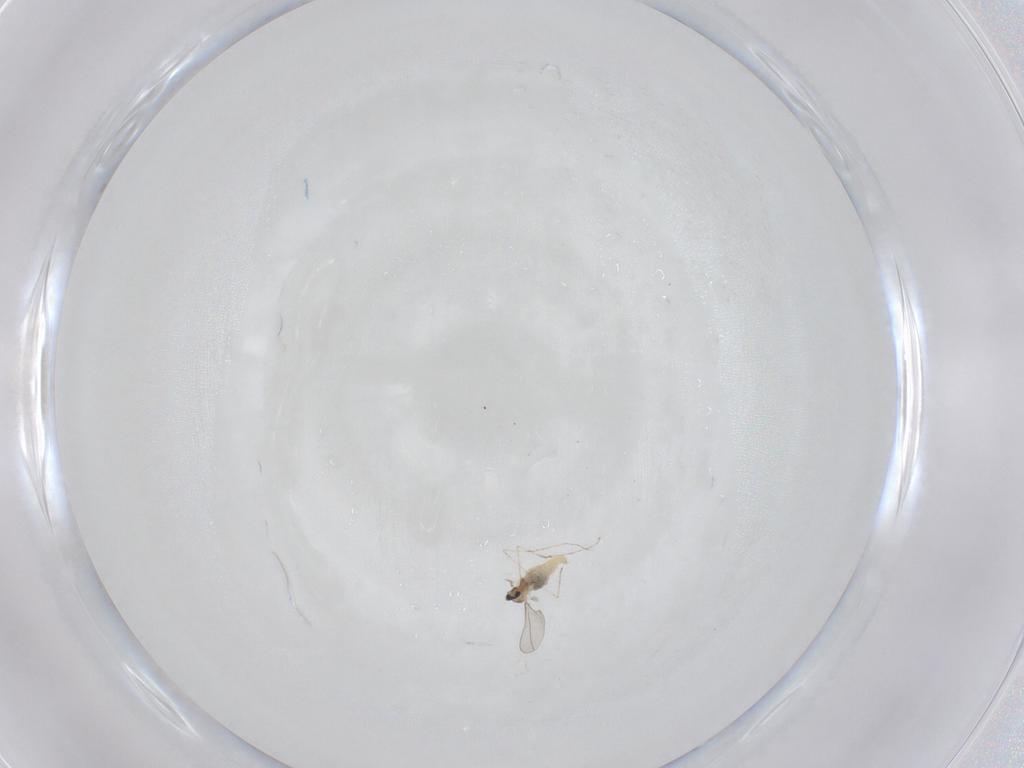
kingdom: Animalia
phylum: Arthropoda
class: Insecta
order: Diptera
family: Cecidomyiidae
